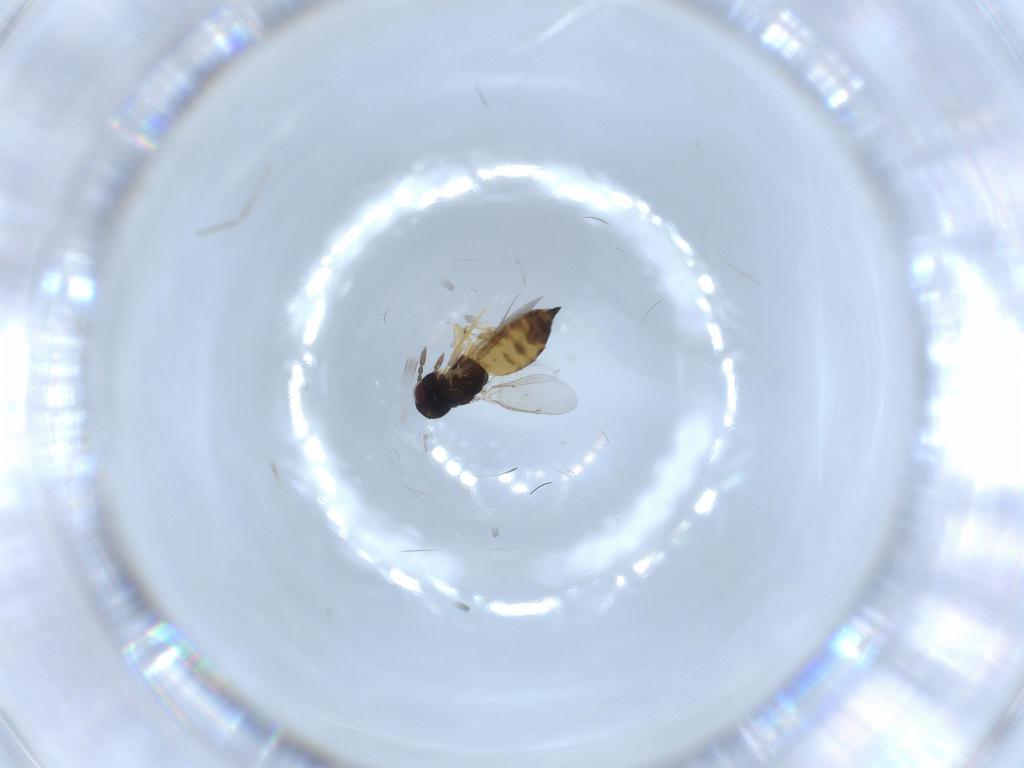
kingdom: Animalia
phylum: Arthropoda
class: Insecta
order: Hymenoptera
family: Eulophidae
